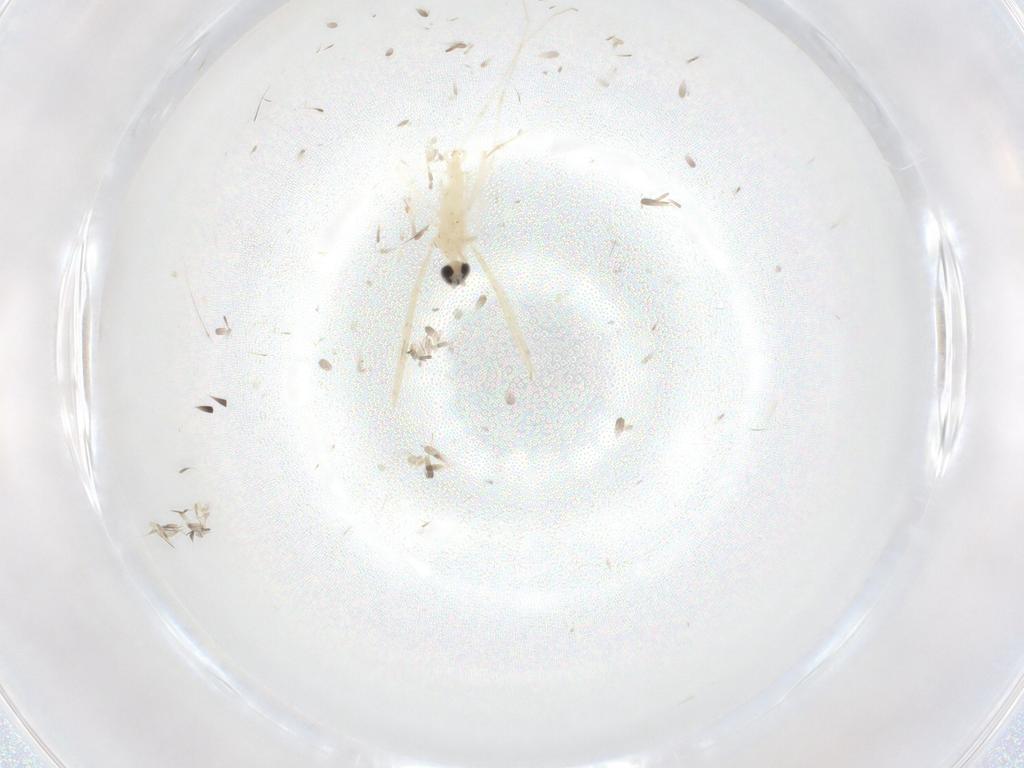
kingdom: Animalia
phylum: Arthropoda
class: Insecta
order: Diptera
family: Cecidomyiidae
